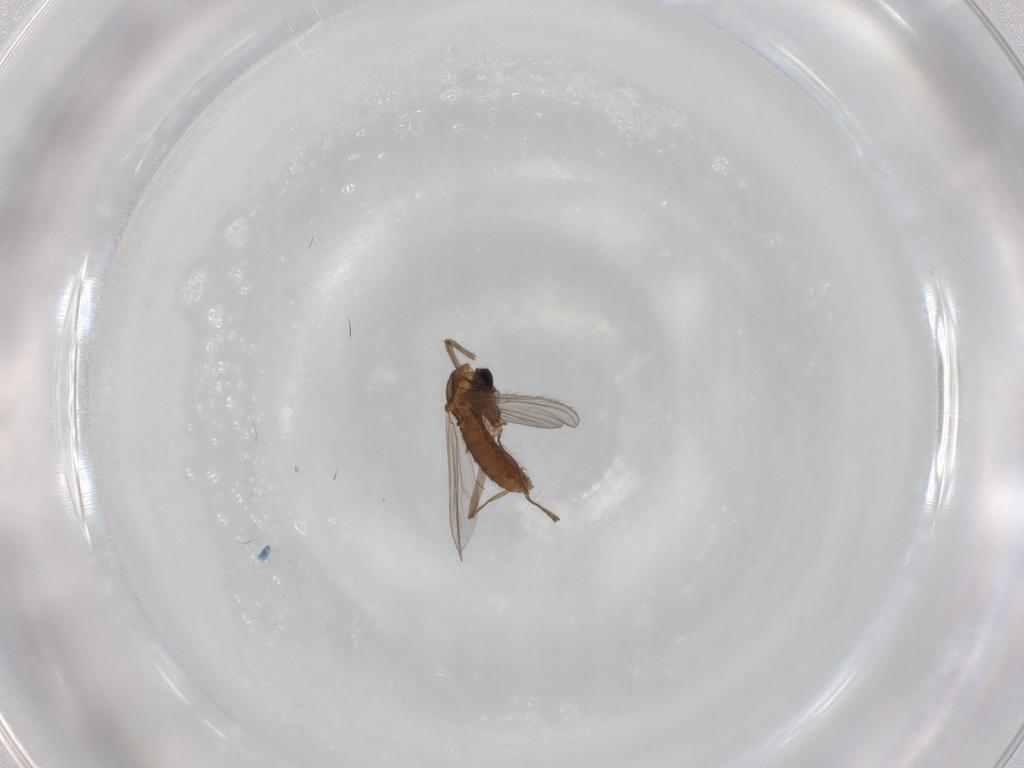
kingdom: Animalia
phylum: Arthropoda
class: Insecta
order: Diptera
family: Chironomidae
